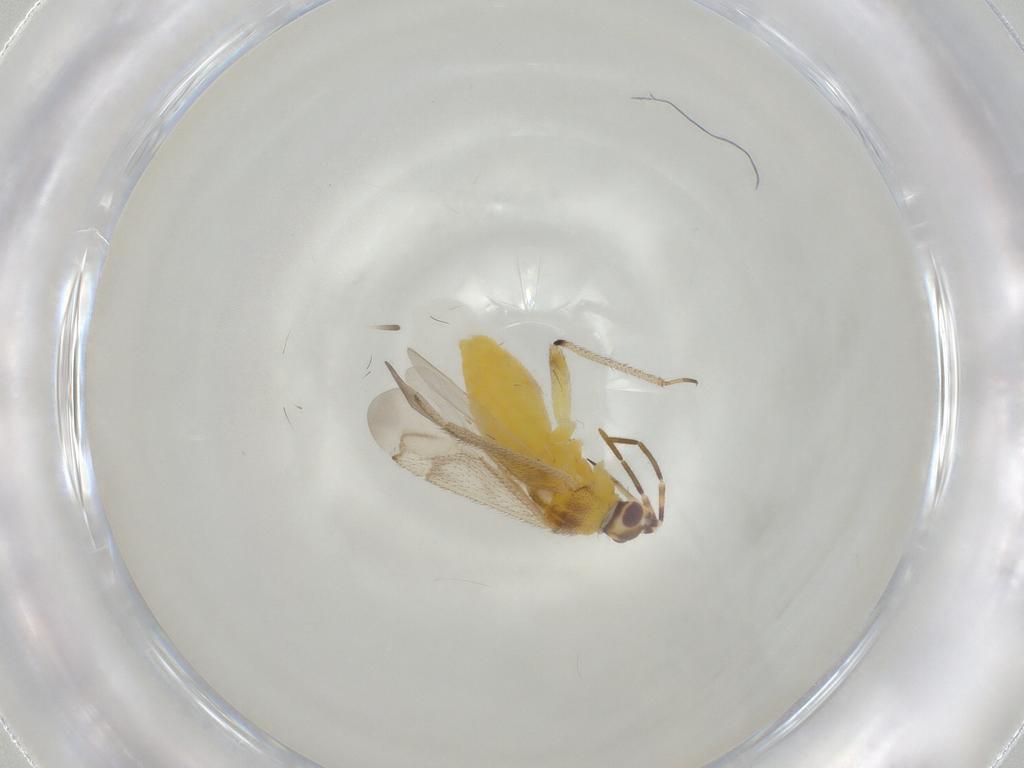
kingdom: Animalia
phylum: Arthropoda
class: Insecta
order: Hemiptera
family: Miridae
